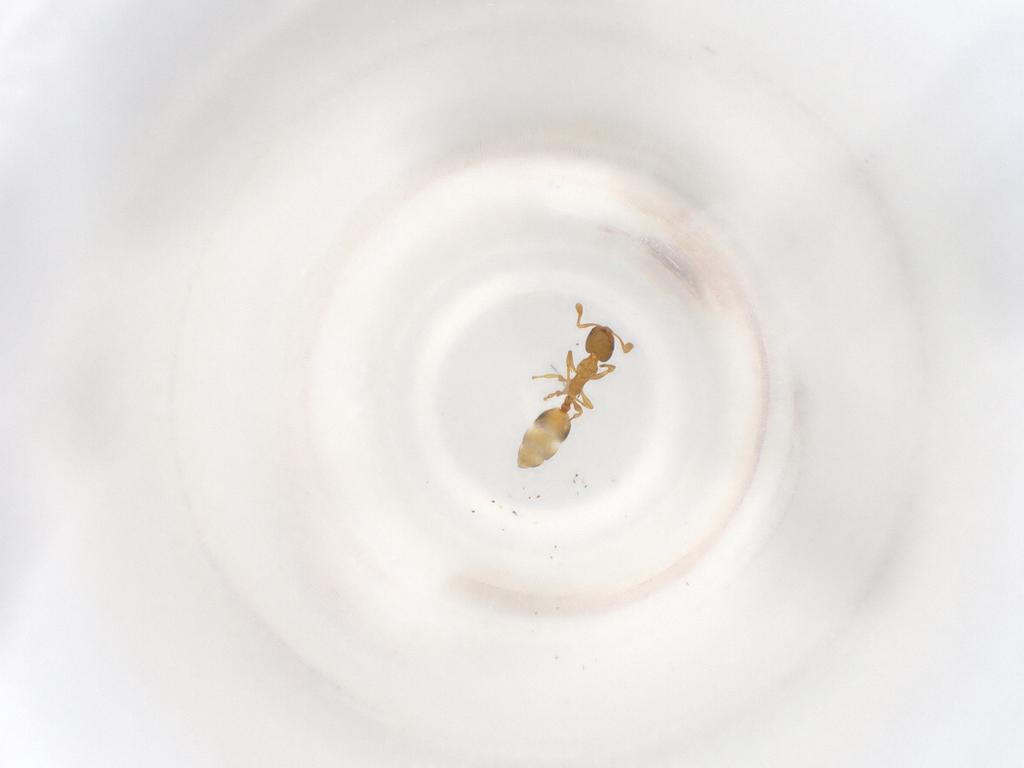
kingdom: Animalia
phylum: Arthropoda
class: Insecta
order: Hymenoptera
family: Formicidae
